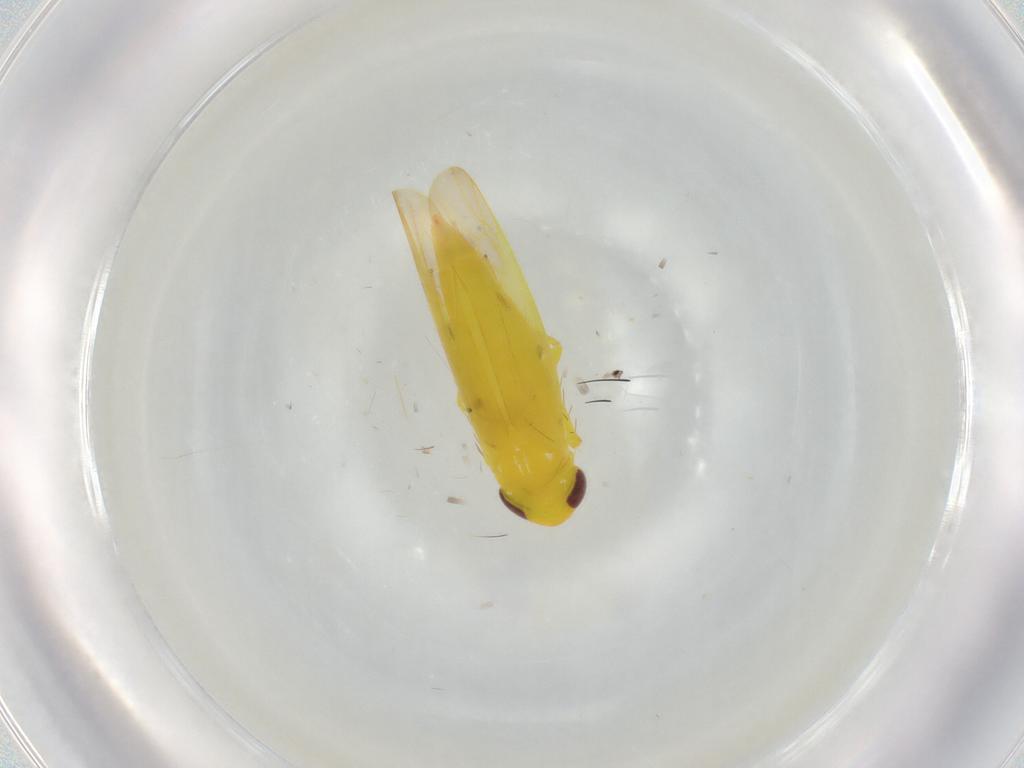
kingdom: Animalia
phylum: Arthropoda
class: Insecta
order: Hemiptera
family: Cicadellidae
